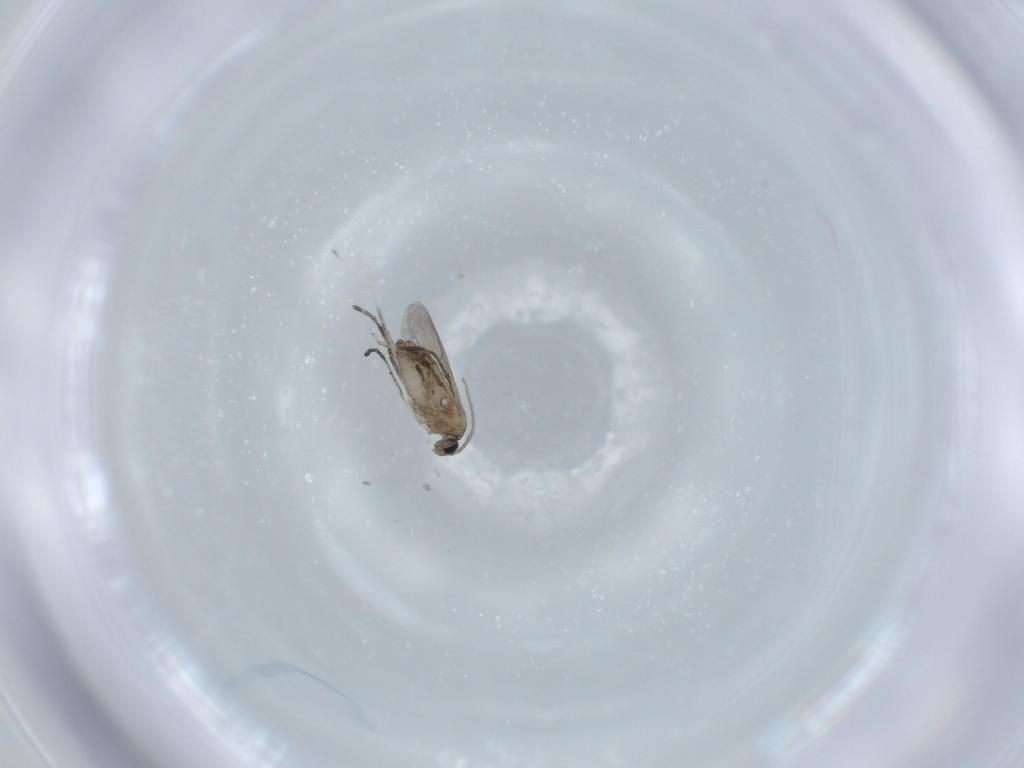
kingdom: Animalia
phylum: Arthropoda
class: Insecta
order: Diptera
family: Cecidomyiidae
